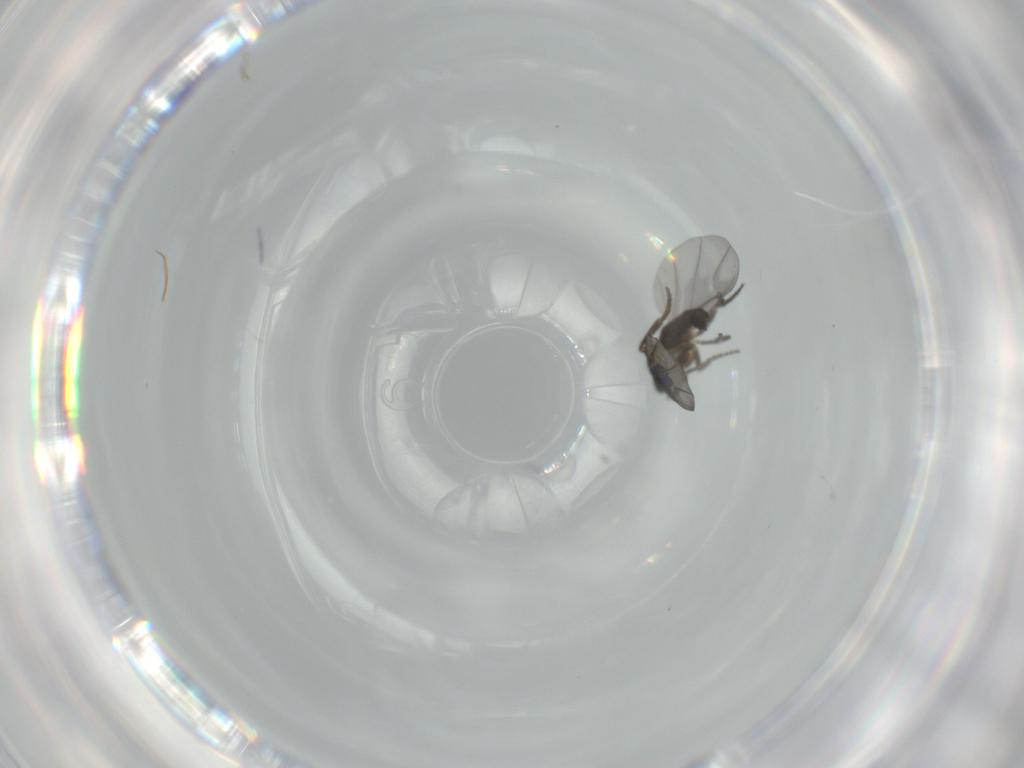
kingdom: Animalia
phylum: Arthropoda
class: Insecta
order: Diptera
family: Phoridae
